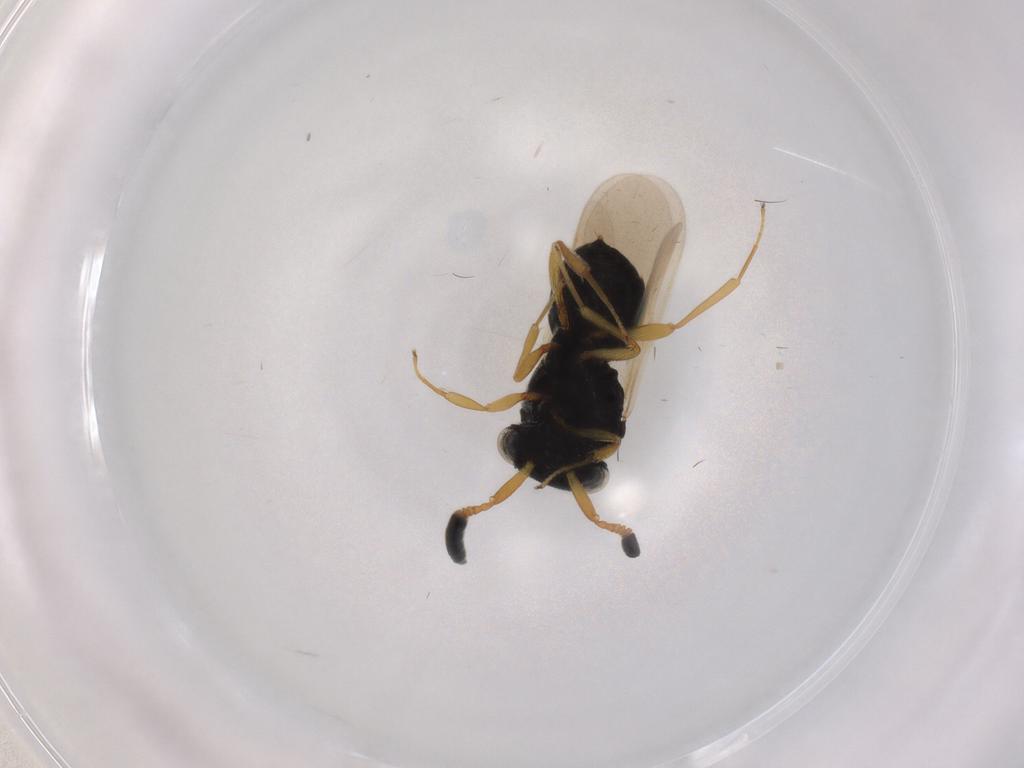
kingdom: Animalia
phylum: Arthropoda
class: Insecta
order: Hymenoptera
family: Scelionidae
